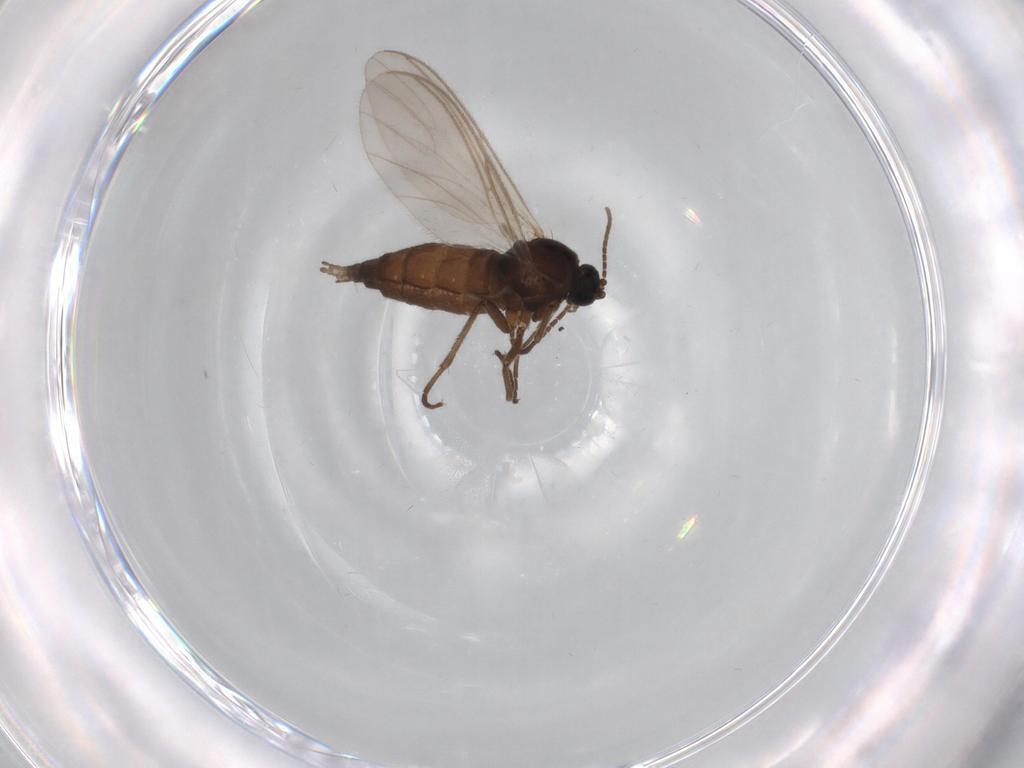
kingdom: Animalia
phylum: Arthropoda
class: Insecta
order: Diptera
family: Sciaridae
